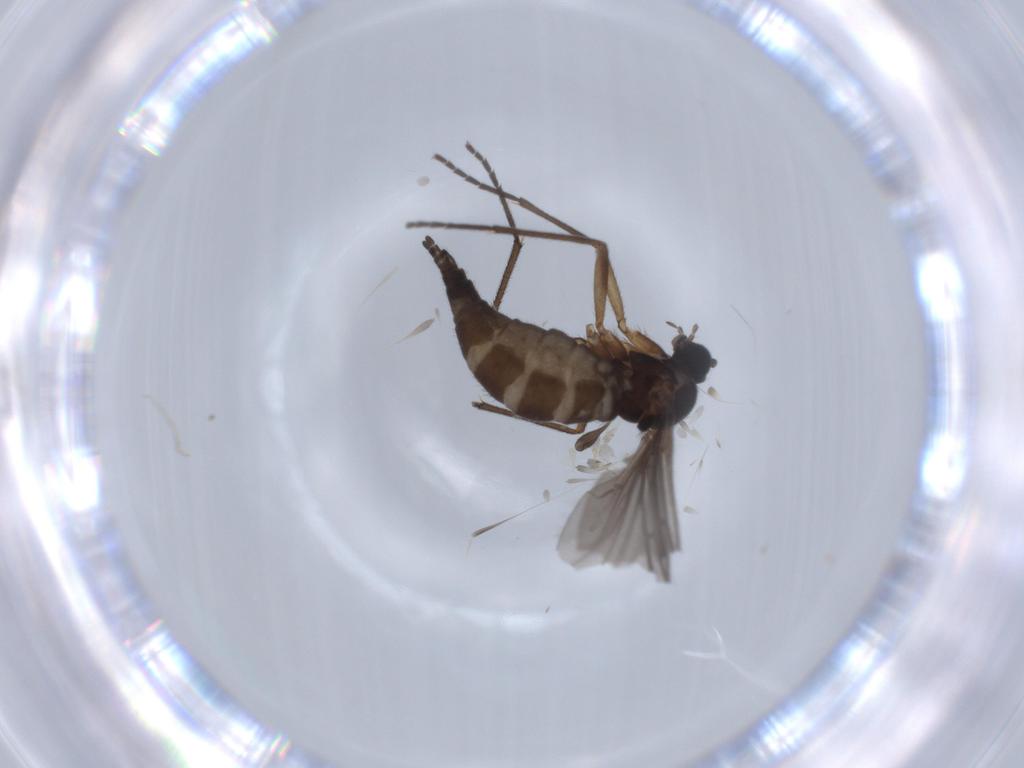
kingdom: Animalia
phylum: Arthropoda
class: Insecta
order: Diptera
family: Sciaridae
